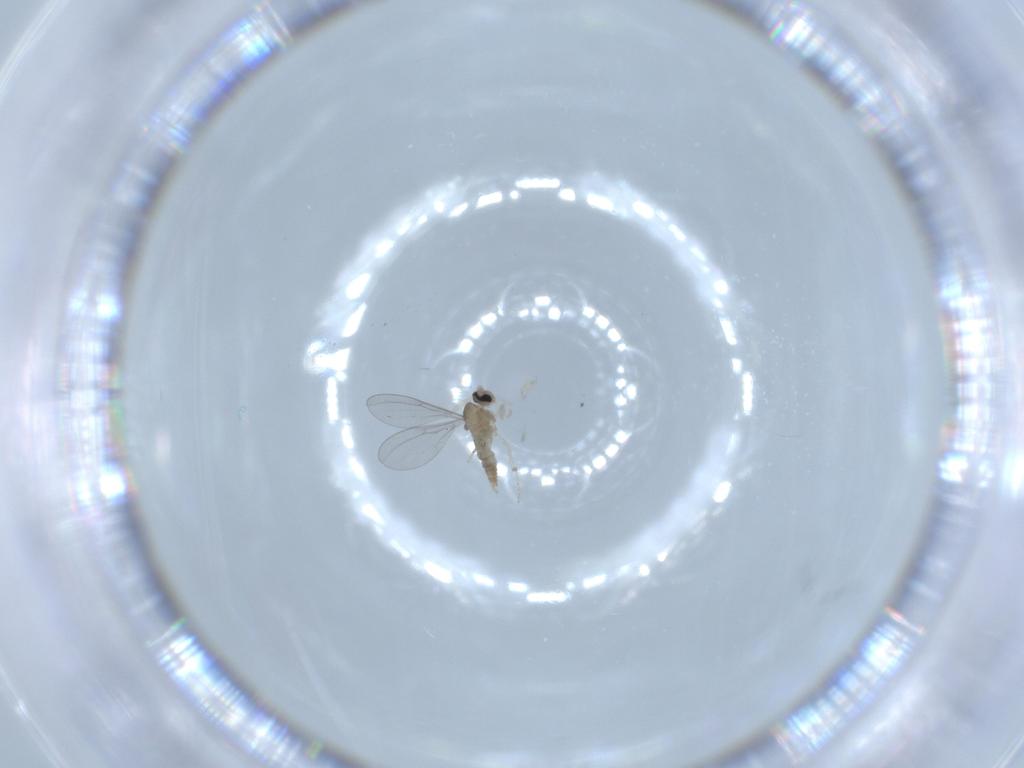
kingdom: Animalia
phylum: Arthropoda
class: Insecta
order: Diptera
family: Cecidomyiidae
